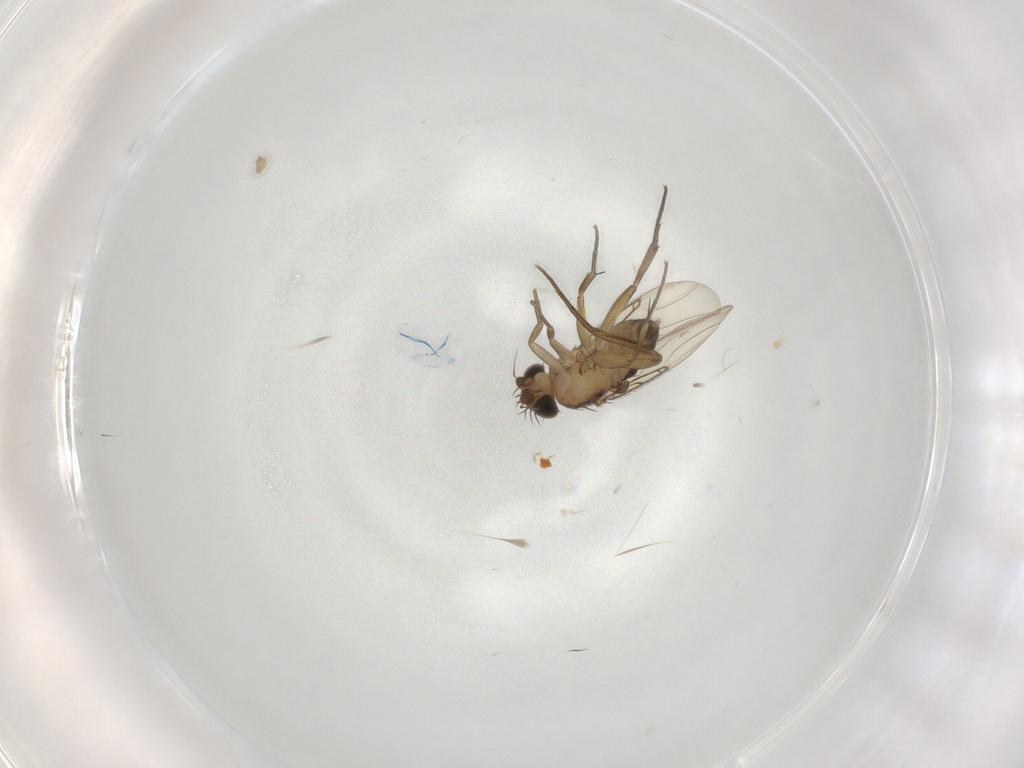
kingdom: Animalia
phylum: Arthropoda
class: Insecta
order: Diptera
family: Phoridae
